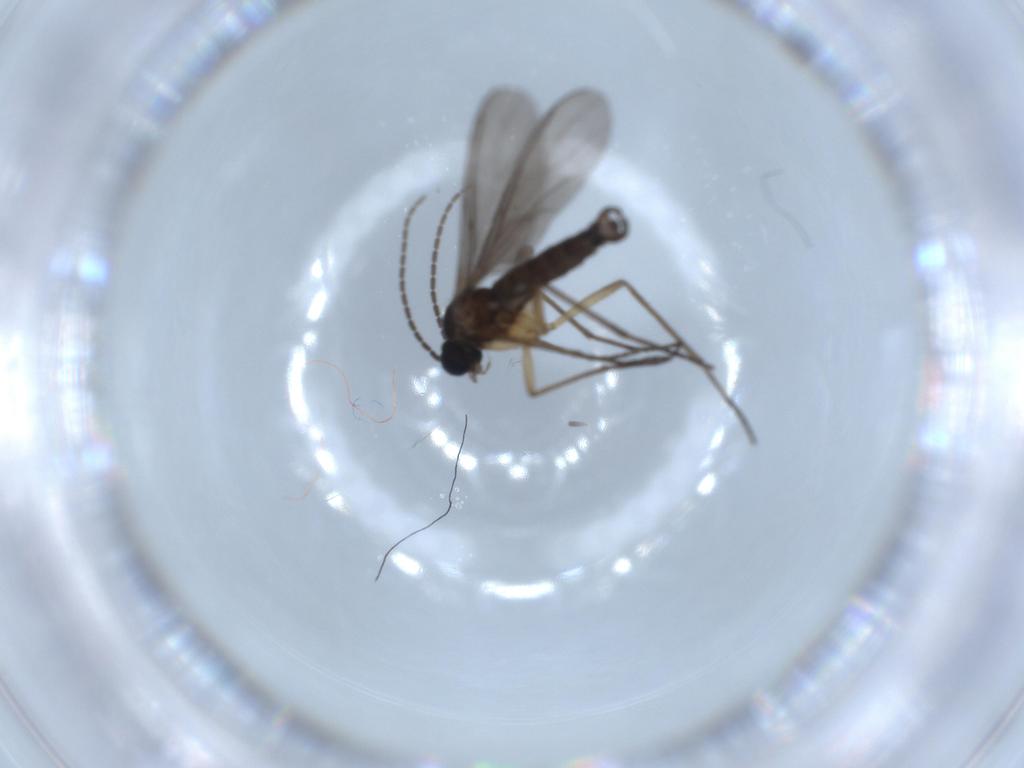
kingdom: Animalia
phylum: Arthropoda
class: Insecta
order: Diptera
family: Sciaridae
